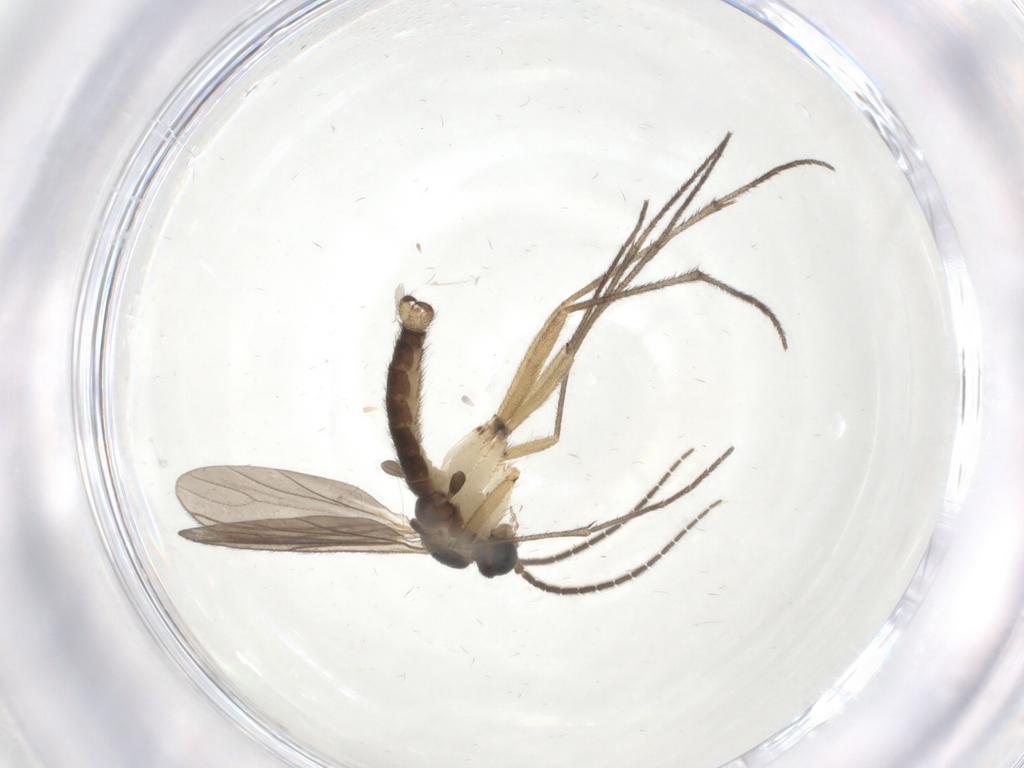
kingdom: Animalia
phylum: Arthropoda
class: Insecta
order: Diptera
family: Sciaridae
